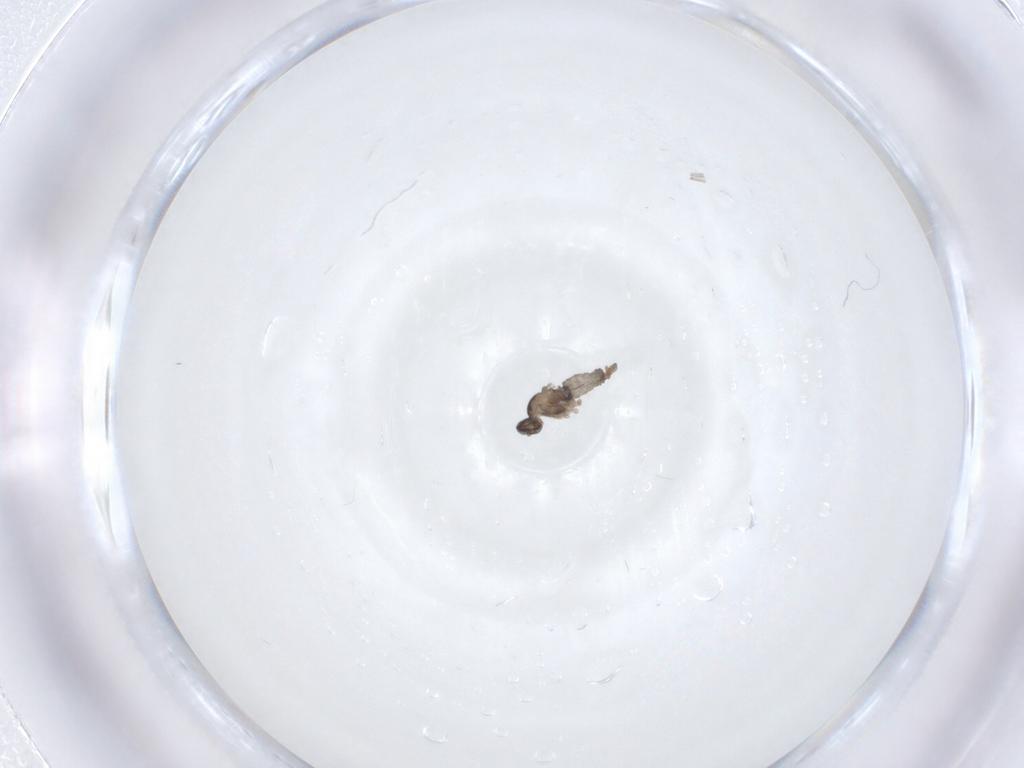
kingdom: Animalia
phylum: Arthropoda
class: Insecta
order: Diptera
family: Cecidomyiidae
